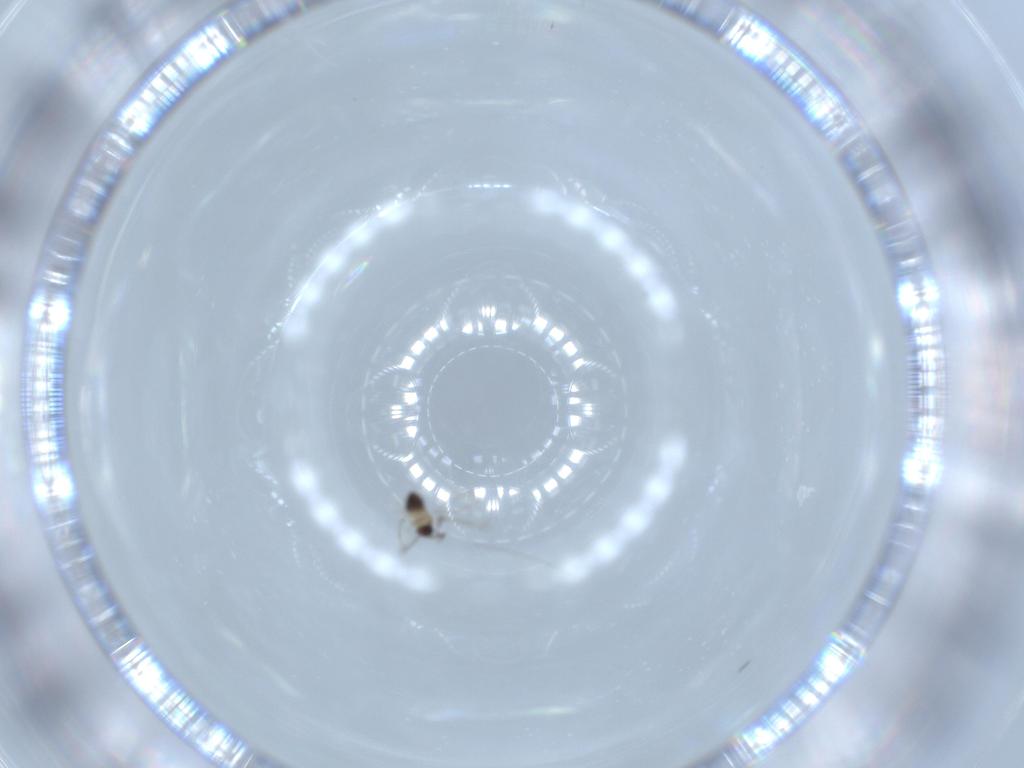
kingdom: Animalia
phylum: Arthropoda
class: Insecta
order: Hymenoptera
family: Mymaridae
